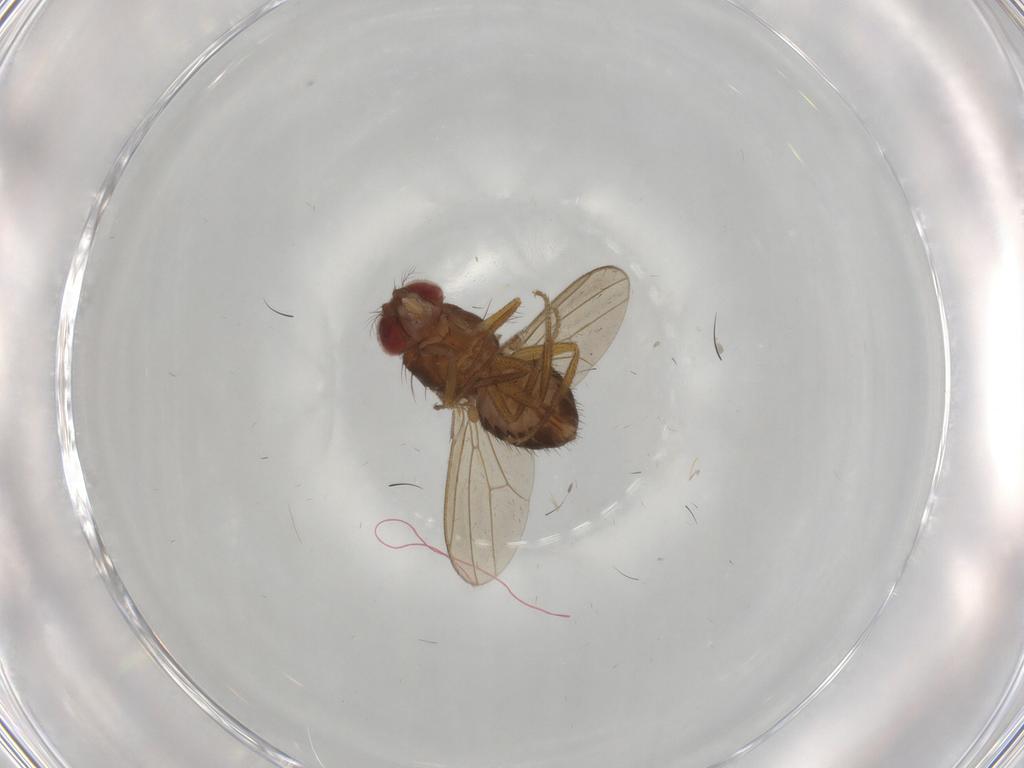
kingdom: Animalia
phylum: Arthropoda
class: Insecta
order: Diptera
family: Drosophilidae
